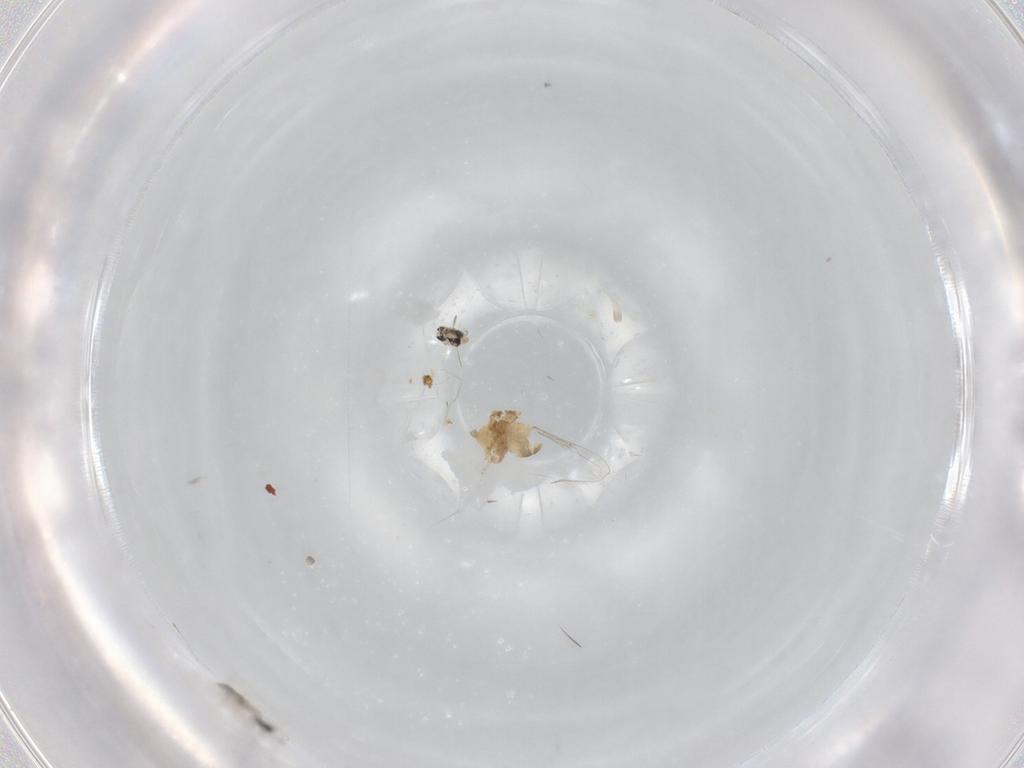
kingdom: Animalia
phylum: Arthropoda
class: Insecta
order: Diptera
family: Cecidomyiidae
